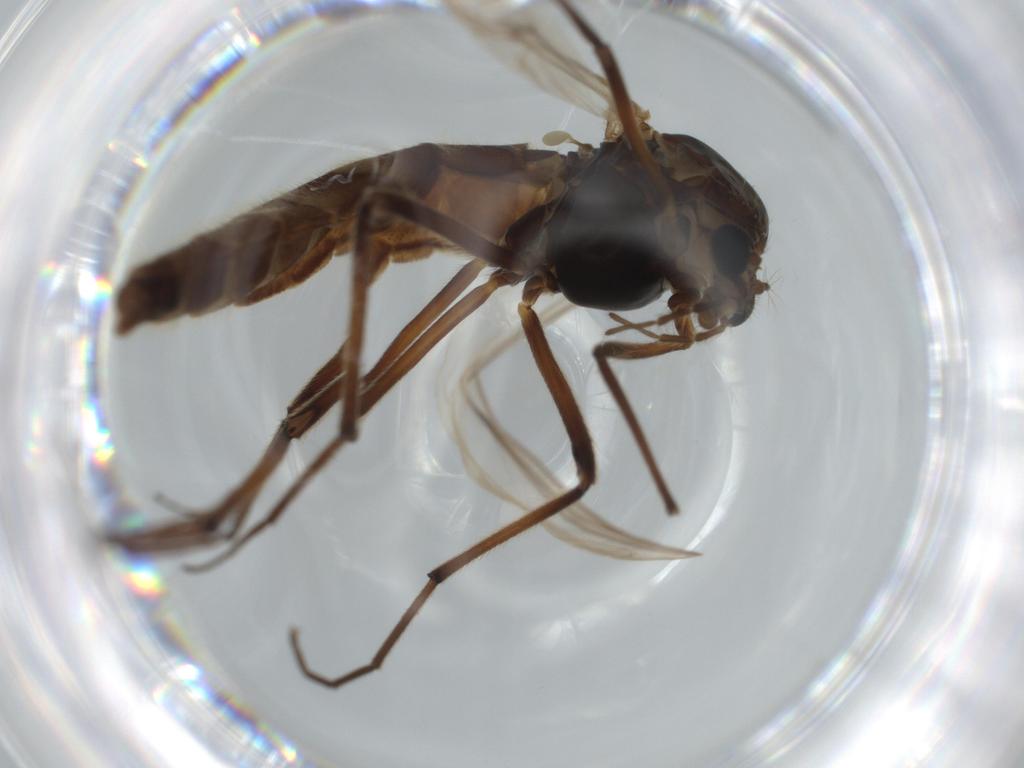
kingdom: Animalia
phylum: Arthropoda
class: Insecta
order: Diptera
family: Chironomidae
